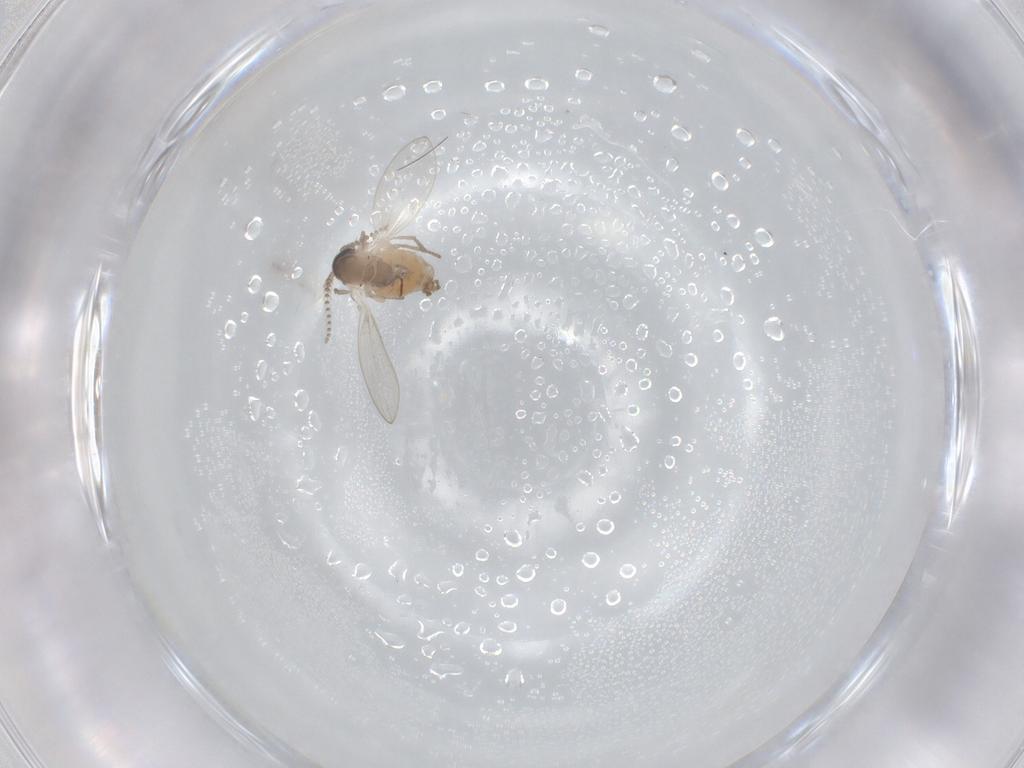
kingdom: Animalia
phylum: Arthropoda
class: Insecta
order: Diptera
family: Psychodidae
